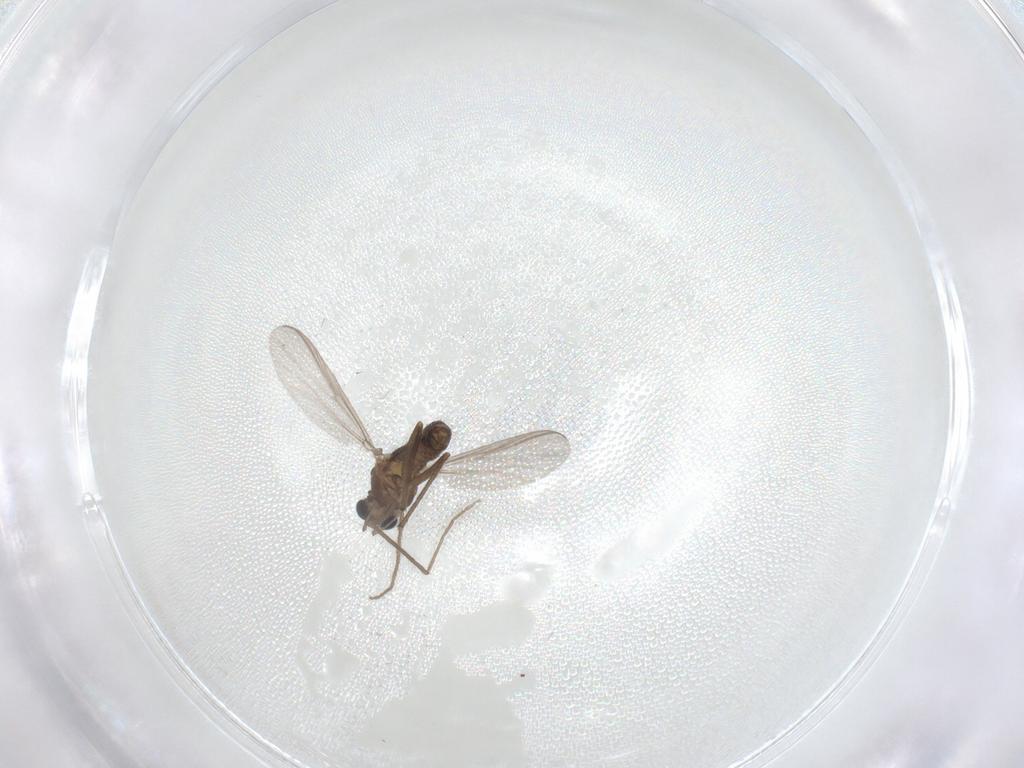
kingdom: Animalia
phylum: Arthropoda
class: Insecta
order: Diptera
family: Chironomidae
